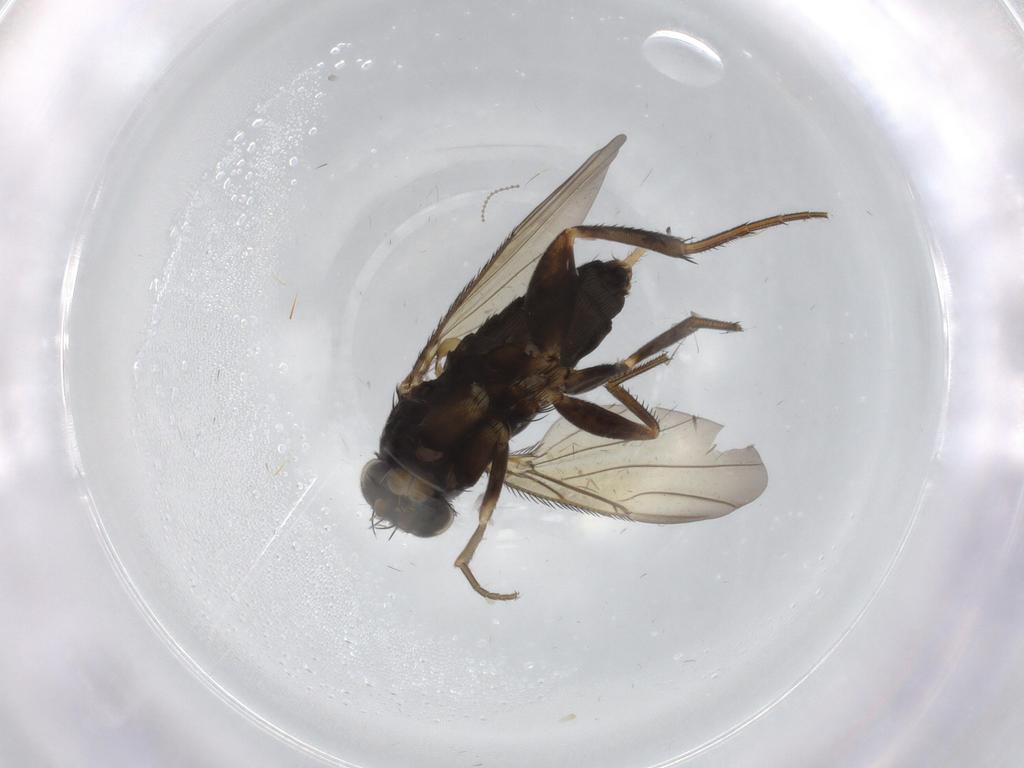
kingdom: Animalia
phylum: Arthropoda
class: Insecta
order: Diptera
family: Phoridae
